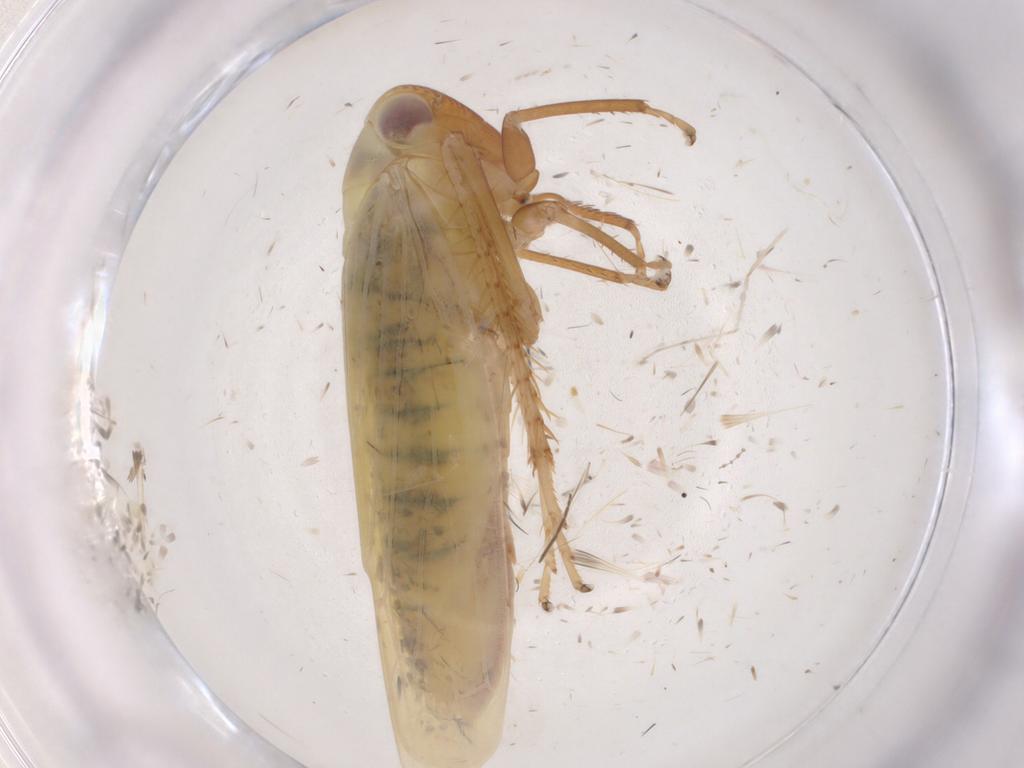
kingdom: Animalia
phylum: Arthropoda
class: Insecta
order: Hemiptera
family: Cicadellidae
